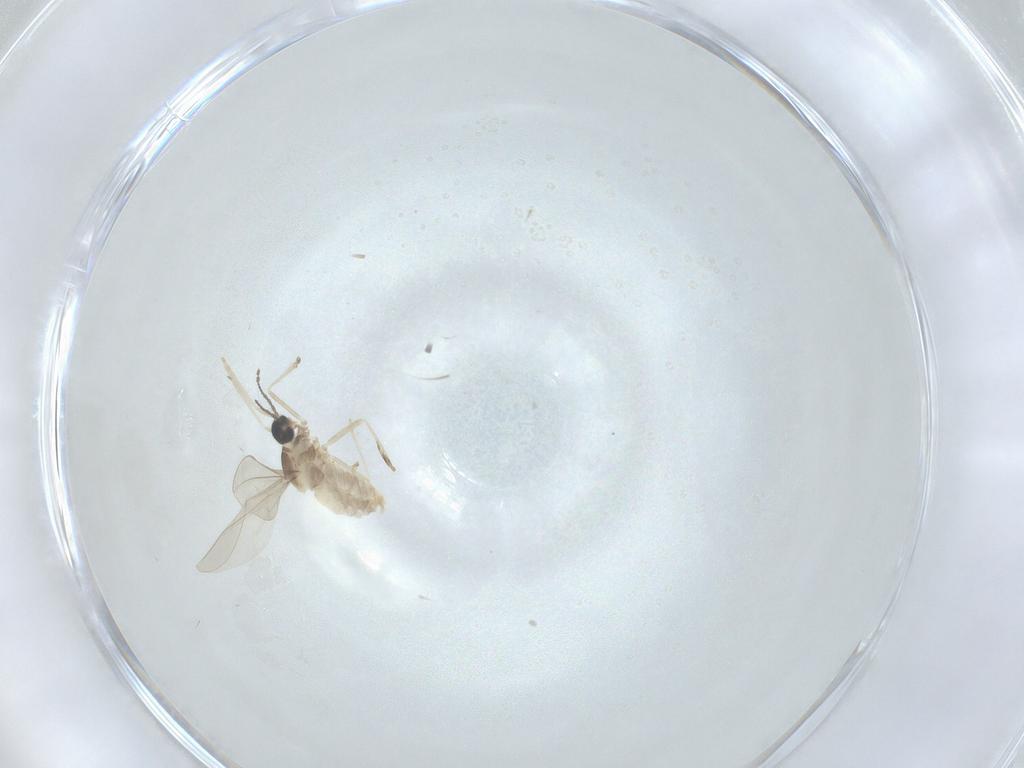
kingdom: Animalia
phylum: Arthropoda
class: Insecta
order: Diptera
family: Cecidomyiidae
